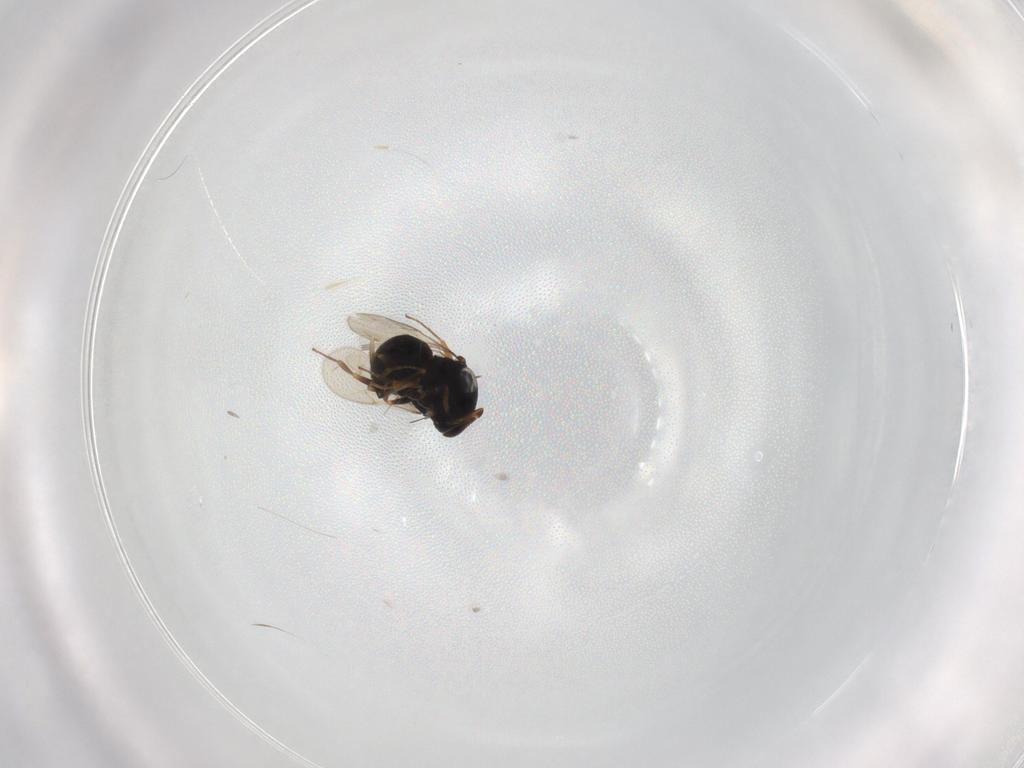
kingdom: Animalia
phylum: Arthropoda
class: Insecta
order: Hymenoptera
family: Scelionidae
